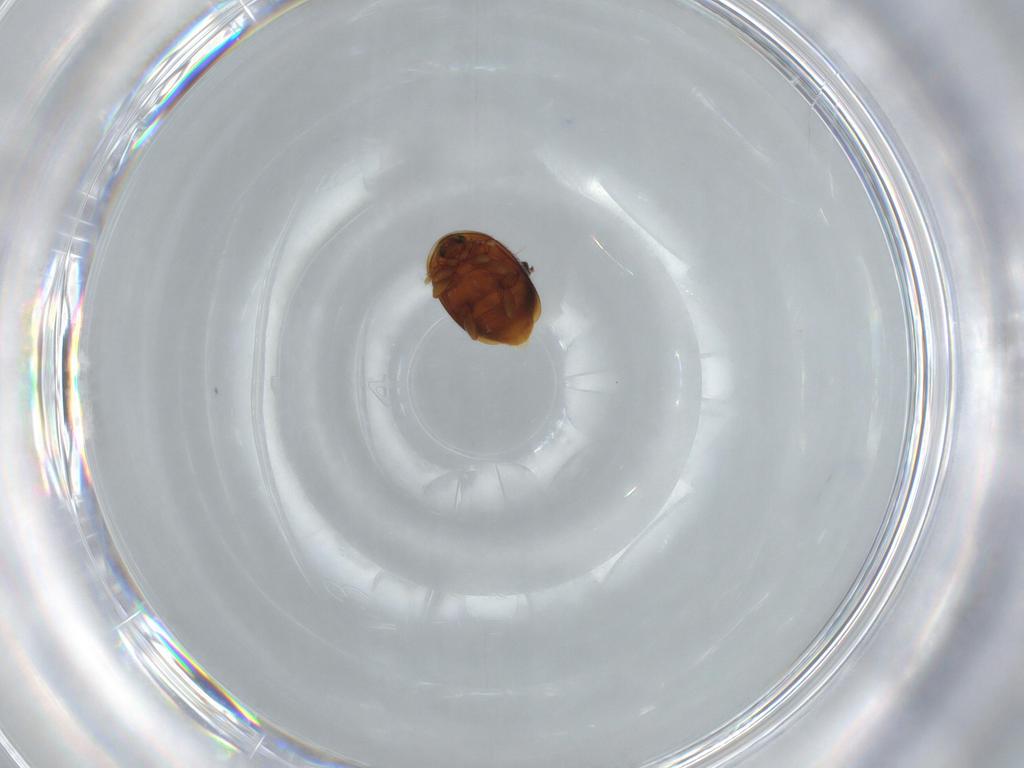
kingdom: Animalia
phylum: Arthropoda
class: Insecta
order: Coleoptera
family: Corylophidae
